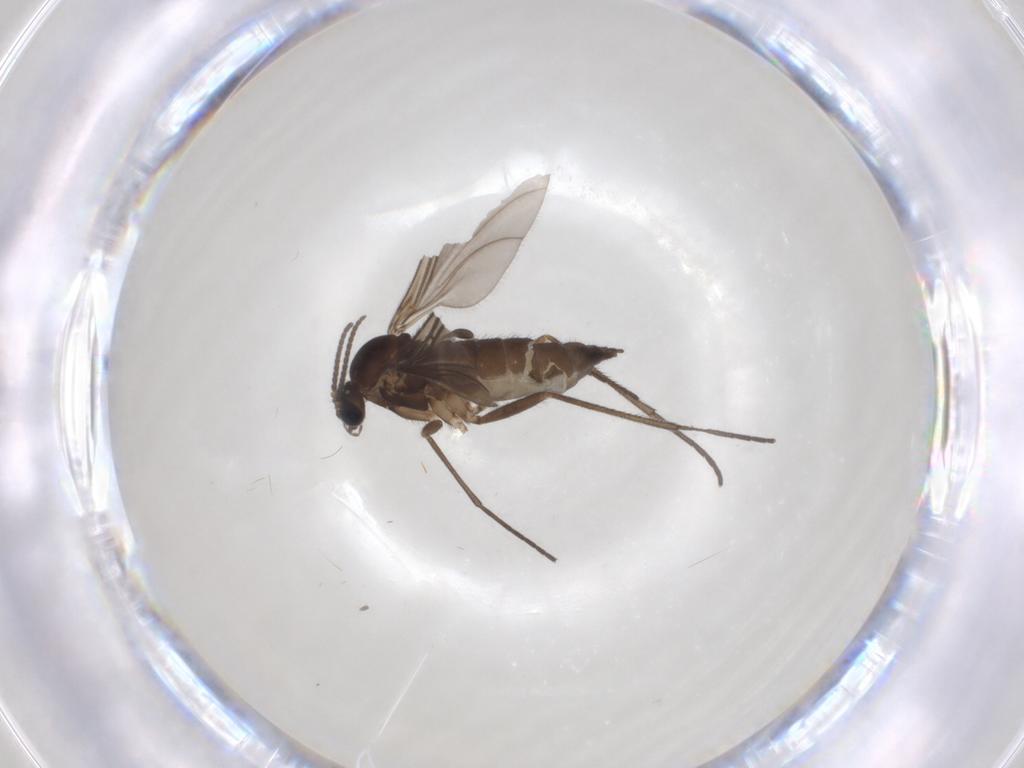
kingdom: Animalia
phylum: Arthropoda
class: Insecta
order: Diptera
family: Sciaridae
